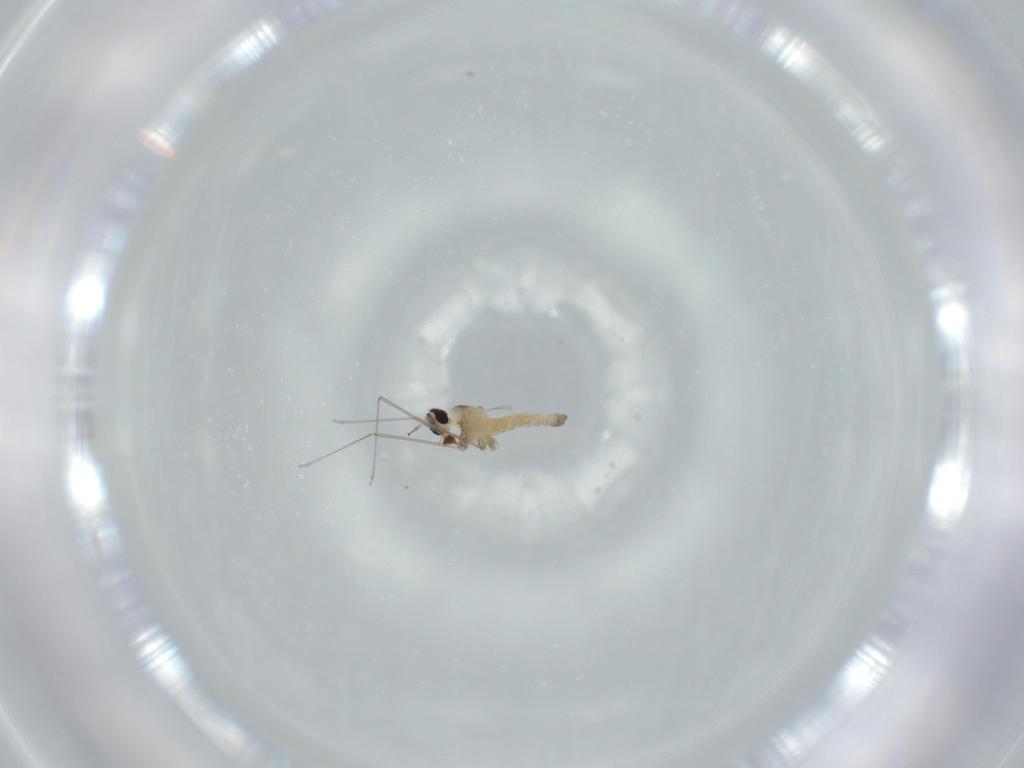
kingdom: Animalia
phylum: Arthropoda
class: Insecta
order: Diptera
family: Cecidomyiidae
